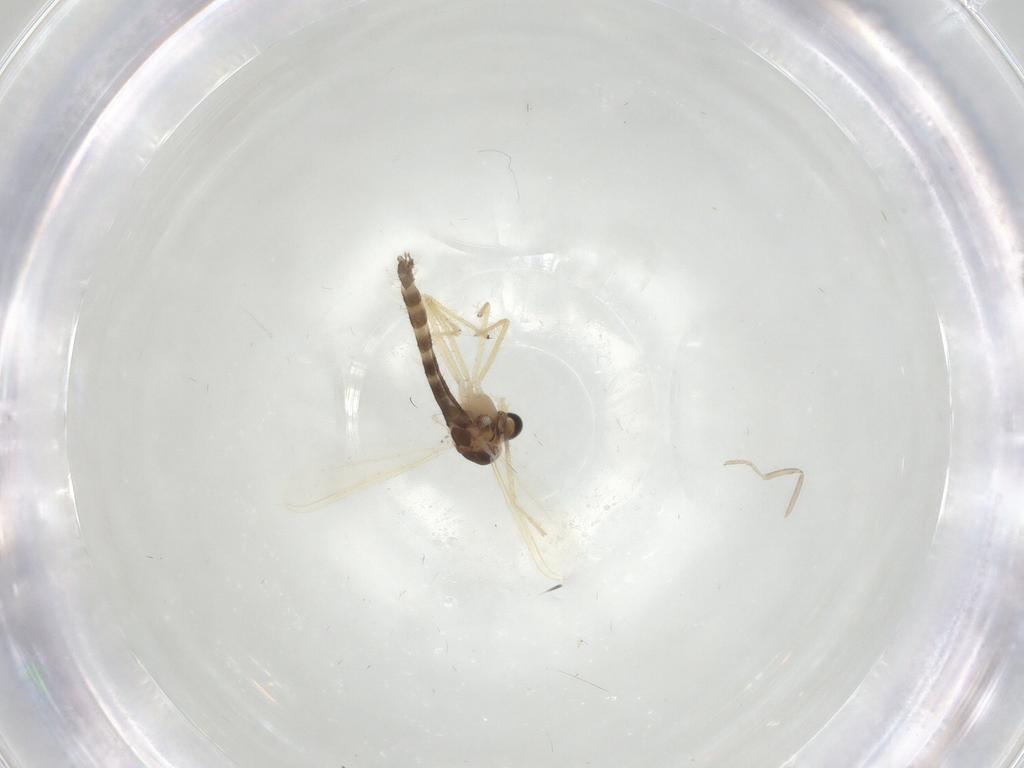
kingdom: Animalia
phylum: Arthropoda
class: Insecta
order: Diptera
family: Chironomidae
